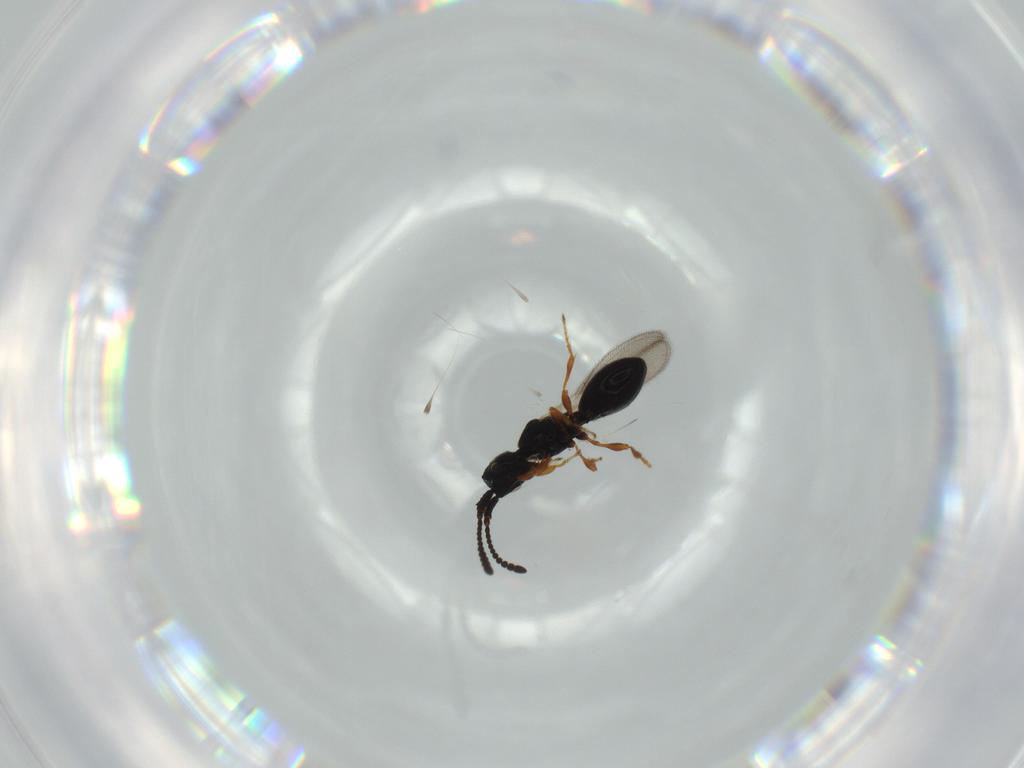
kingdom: Animalia
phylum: Arthropoda
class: Insecta
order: Hymenoptera
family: Diapriidae
